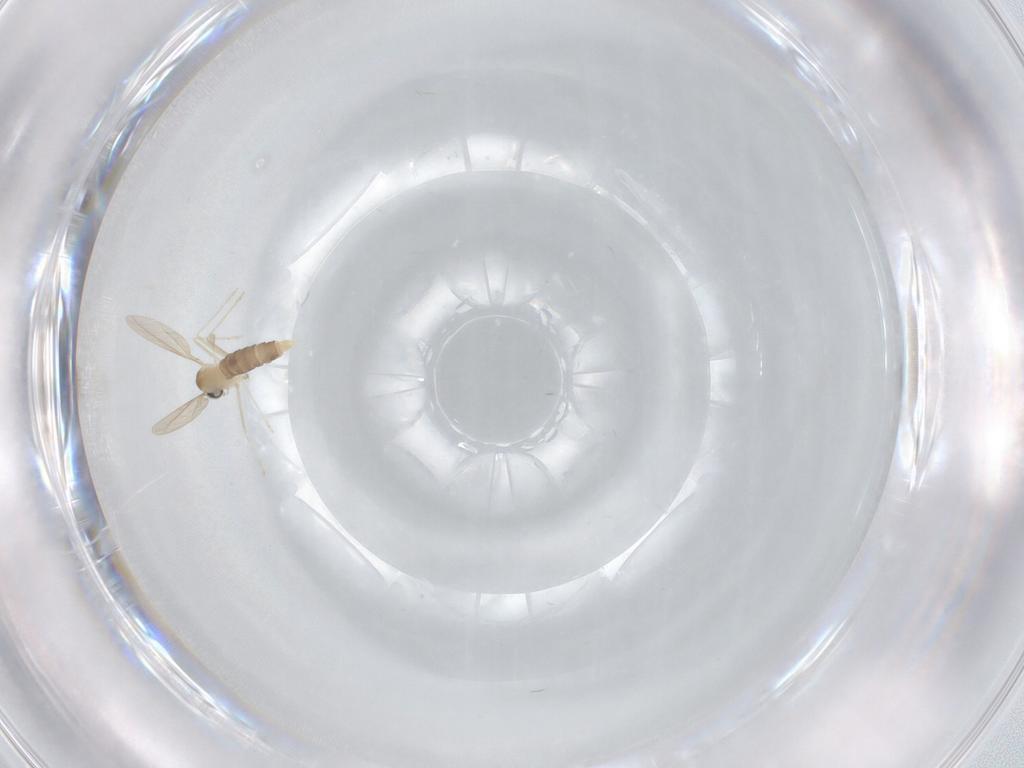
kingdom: Animalia
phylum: Arthropoda
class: Insecta
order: Diptera
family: Cecidomyiidae
